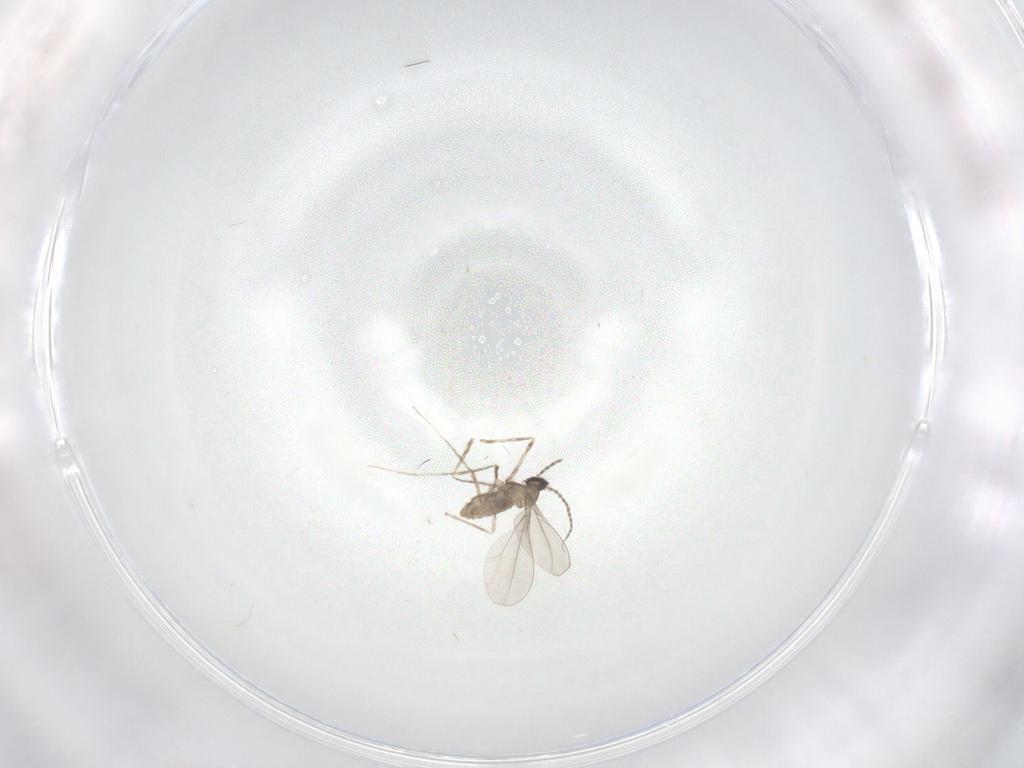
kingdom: Animalia
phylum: Arthropoda
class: Insecta
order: Diptera
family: Cecidomyiidae
